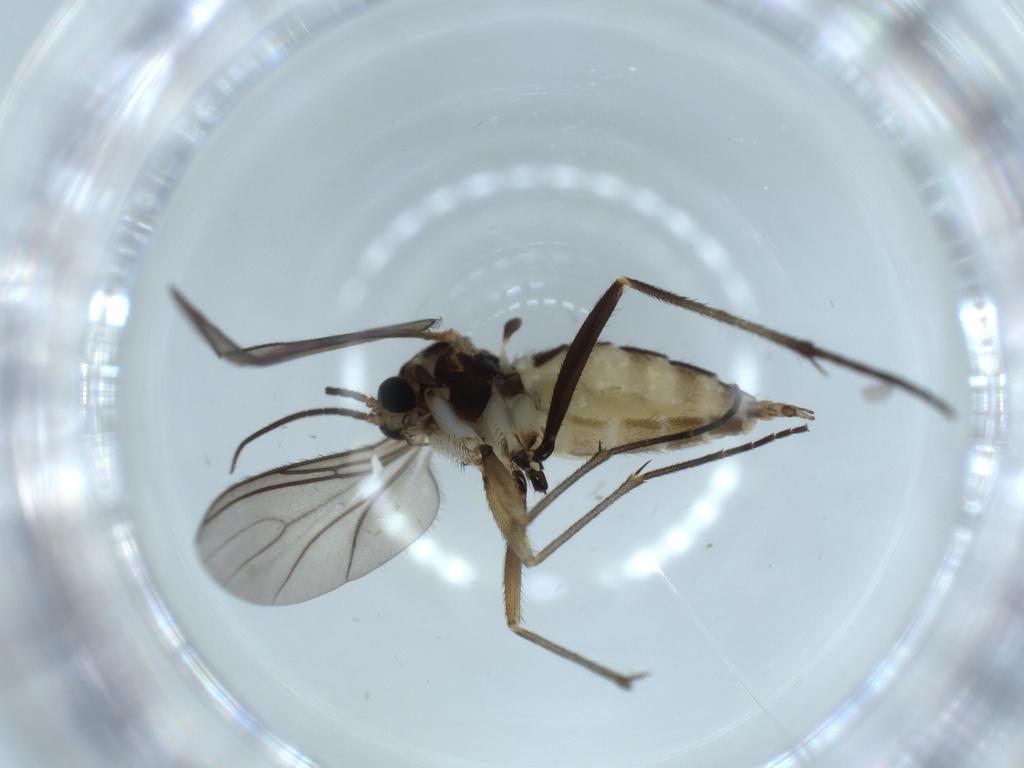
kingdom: Animalia
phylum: Arthropoda
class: Insecta
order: Diptera
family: Sciaridae
